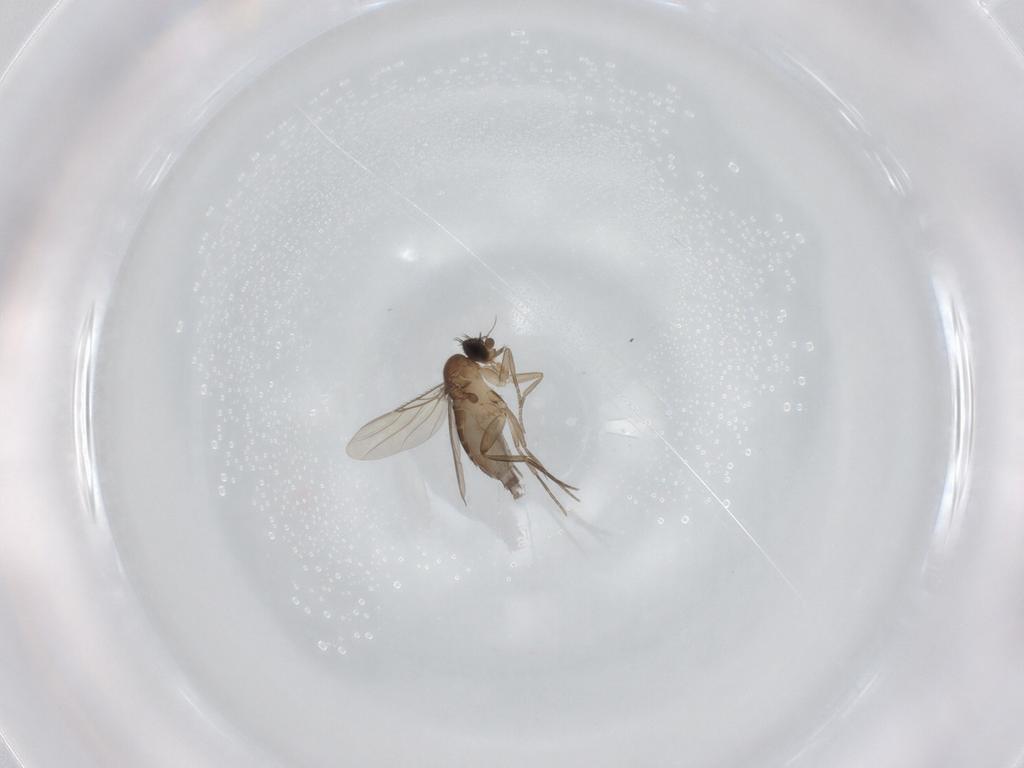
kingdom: Animalia
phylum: Arthropoda
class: Insecta
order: Diptera
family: Phoridae
